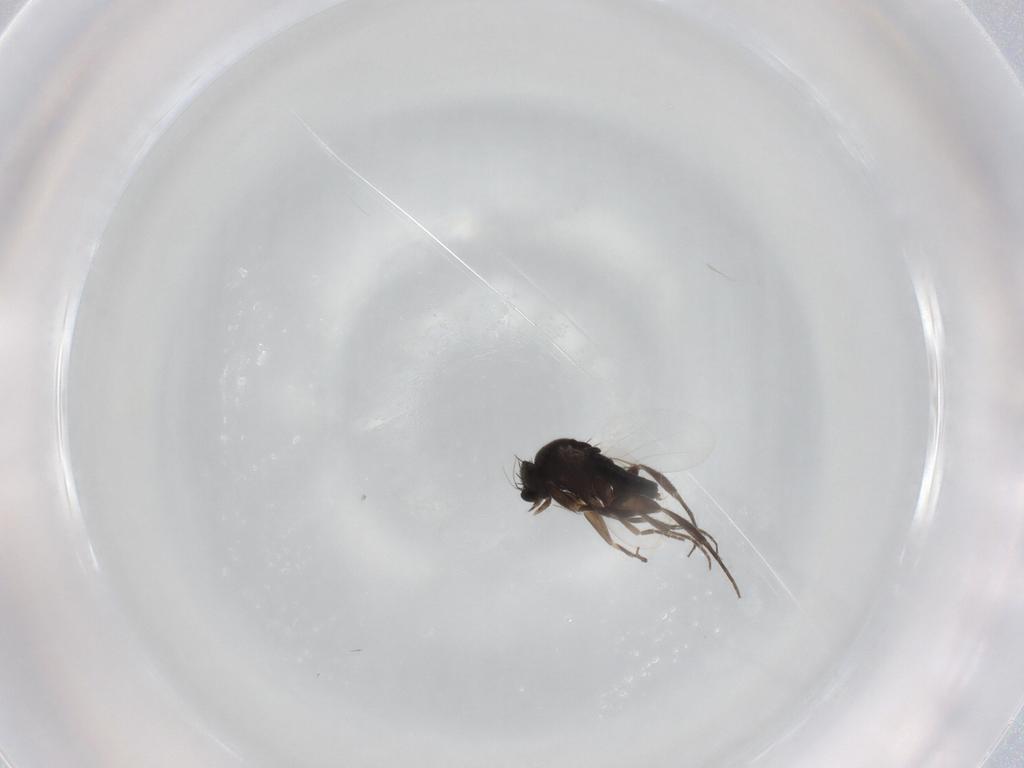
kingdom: Animalia
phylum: Arthropoda
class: Insecta
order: Diptera
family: Phoridae
